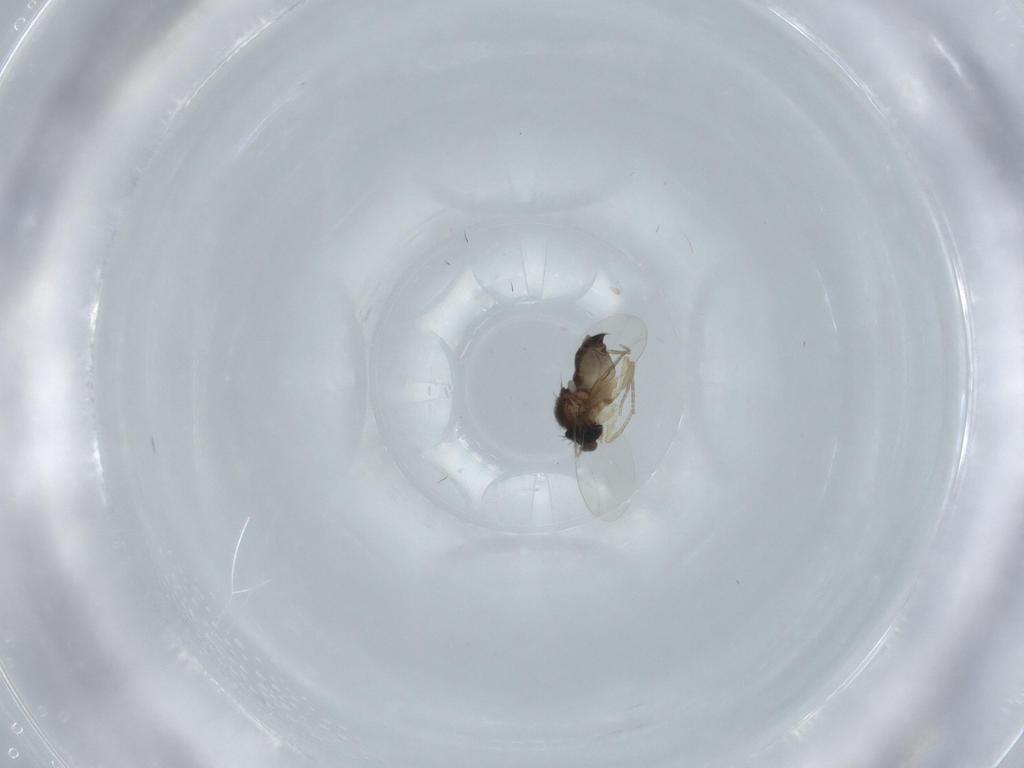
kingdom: Animalia
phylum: Arthropoda
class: Insecta
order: Diptera
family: Phoridae
